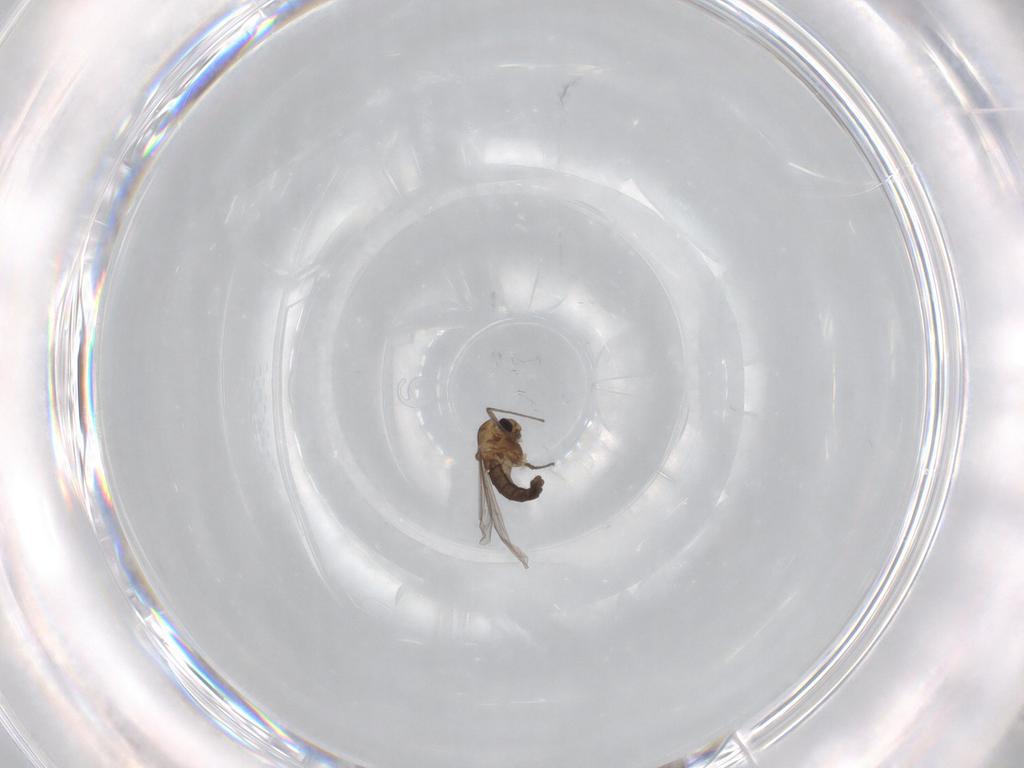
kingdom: Animalia
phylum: Arthropoda
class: Insecta
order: Diptera
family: Chironomidae
